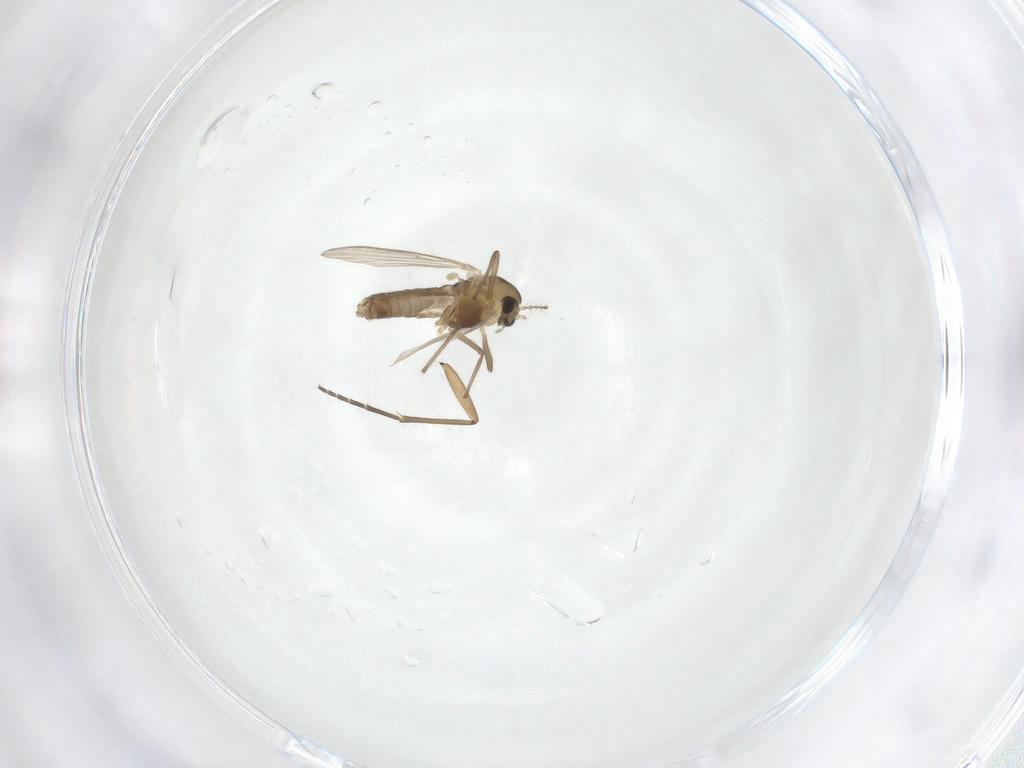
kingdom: Animalia
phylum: Arthropoda
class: Insecta
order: Diptera
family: Sciaridae
